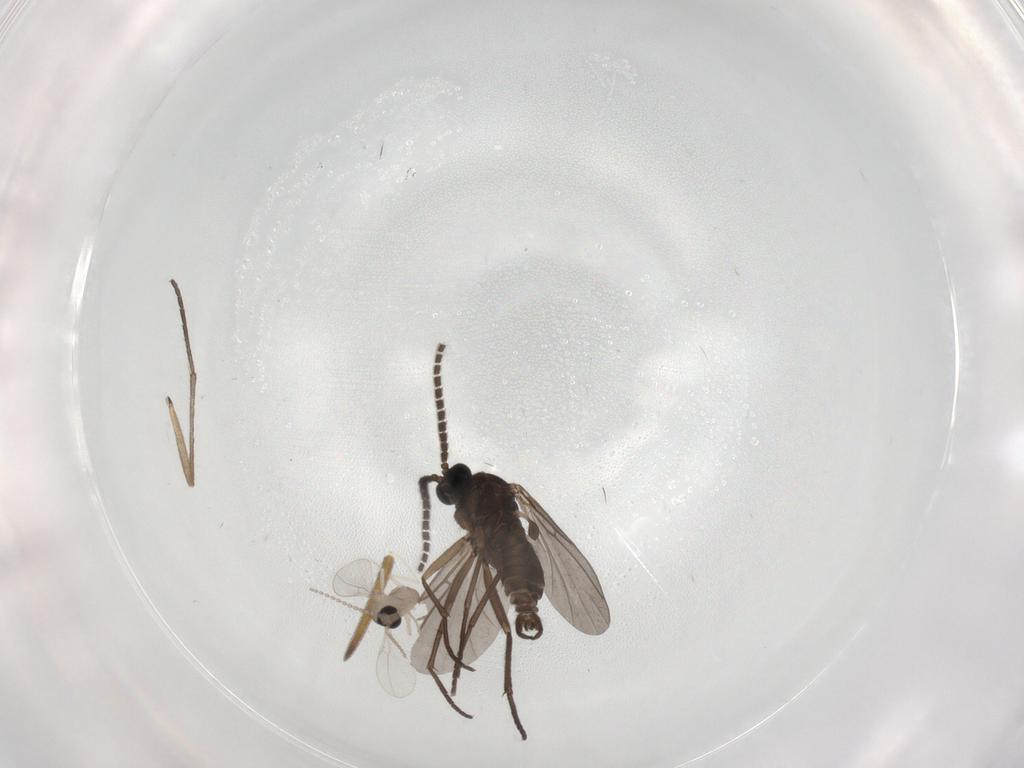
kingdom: Animalia
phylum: Arthropoda
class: Insecta
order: Diptera
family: Sciaridae
